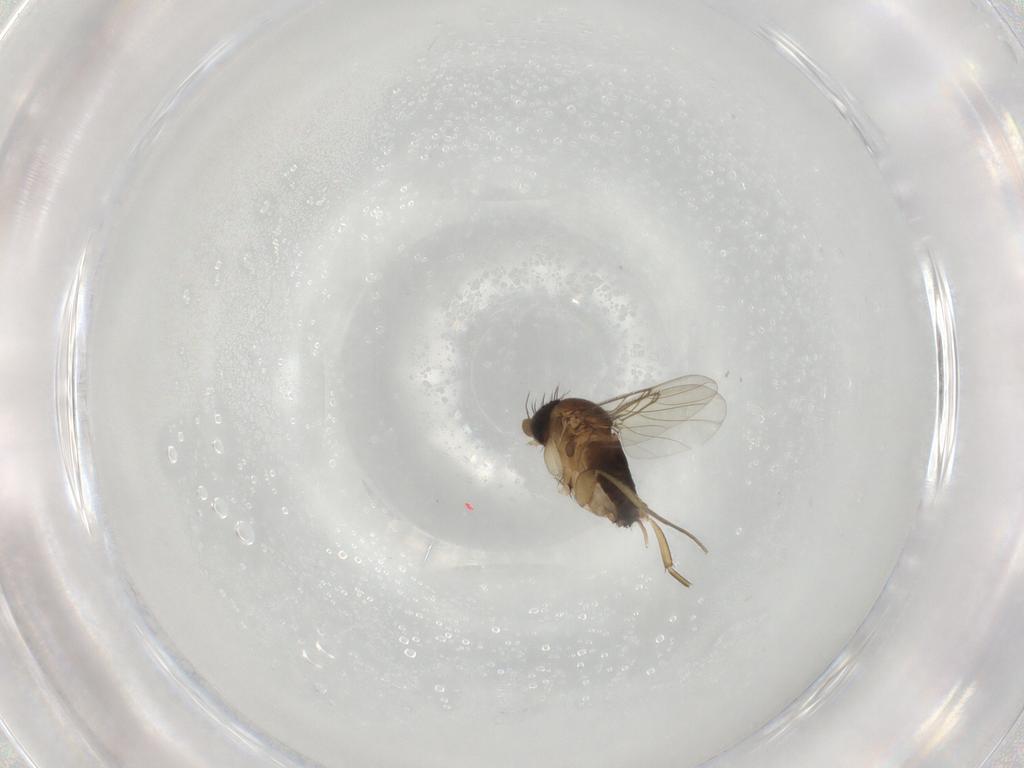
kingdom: Animalia
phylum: Arthropoda
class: Insecta
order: Diptera
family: Phoridae
